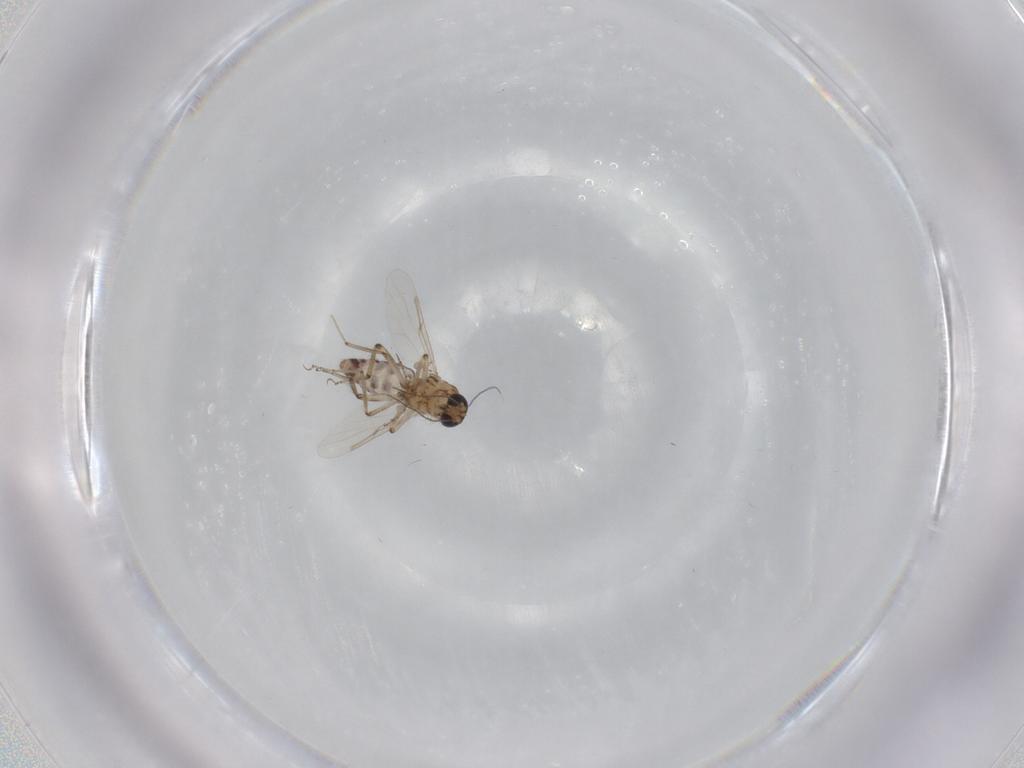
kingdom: Animalia
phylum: Arthropoda
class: Insecta
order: Diptera
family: Ceratopogonidae
